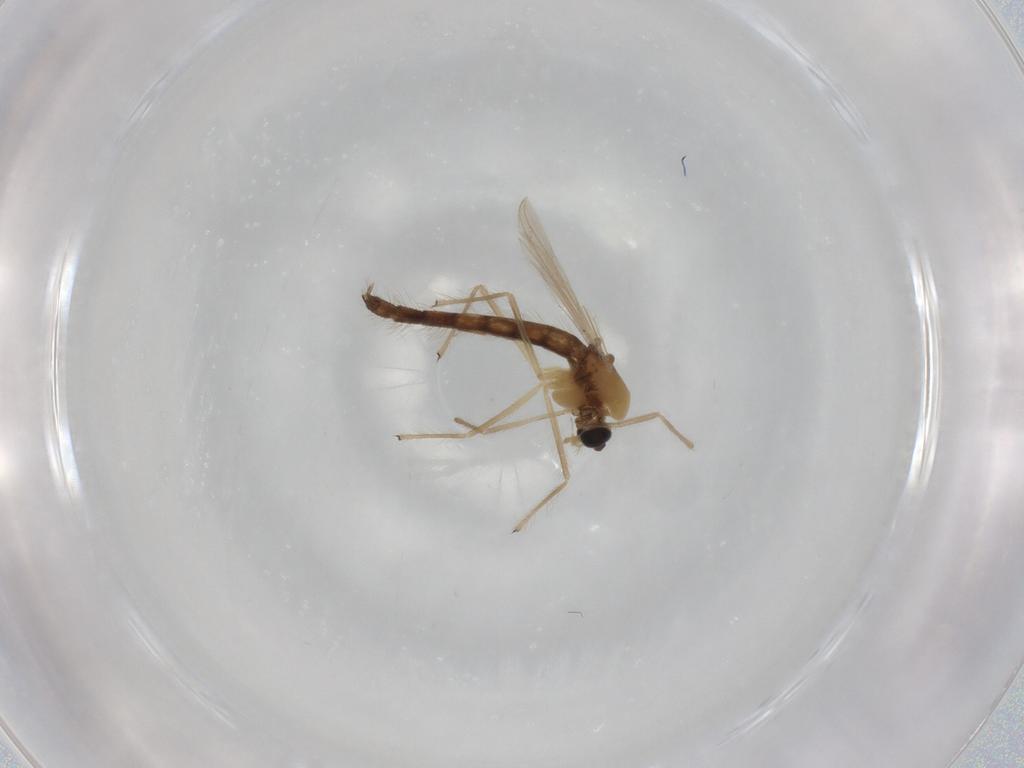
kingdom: Animalia
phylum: Arthropoda
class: Insecta
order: Diptera
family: Chironomidae
